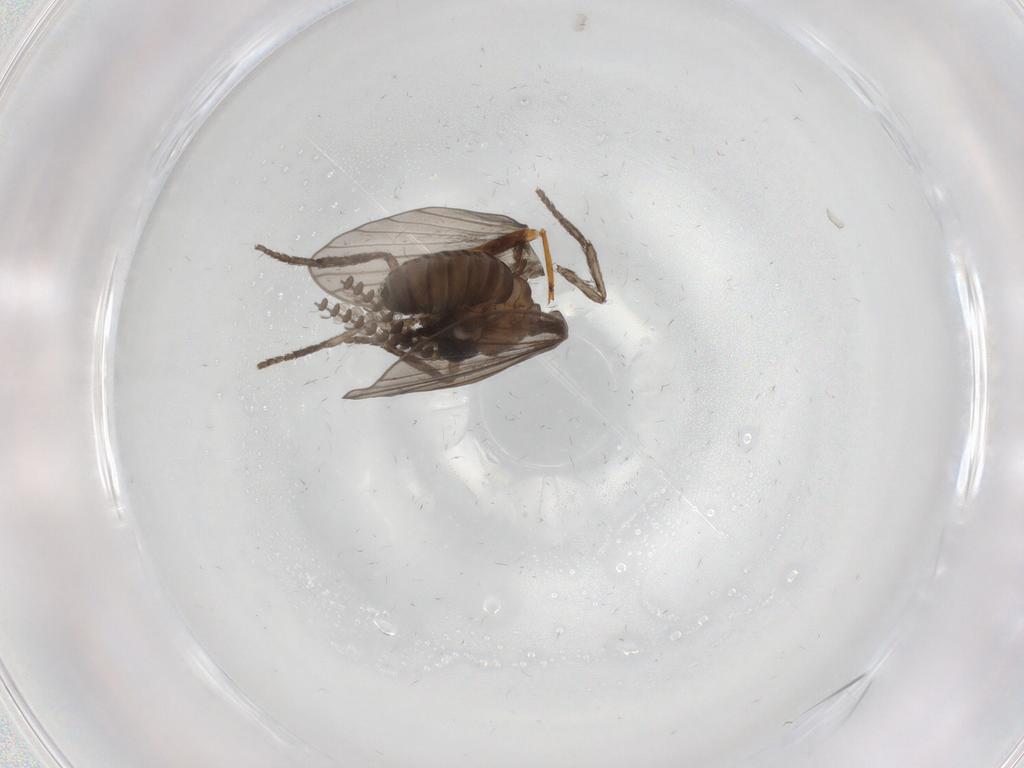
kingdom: Animalia
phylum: Arthropoda
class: Insecta
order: Diptera
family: Psychodidae
